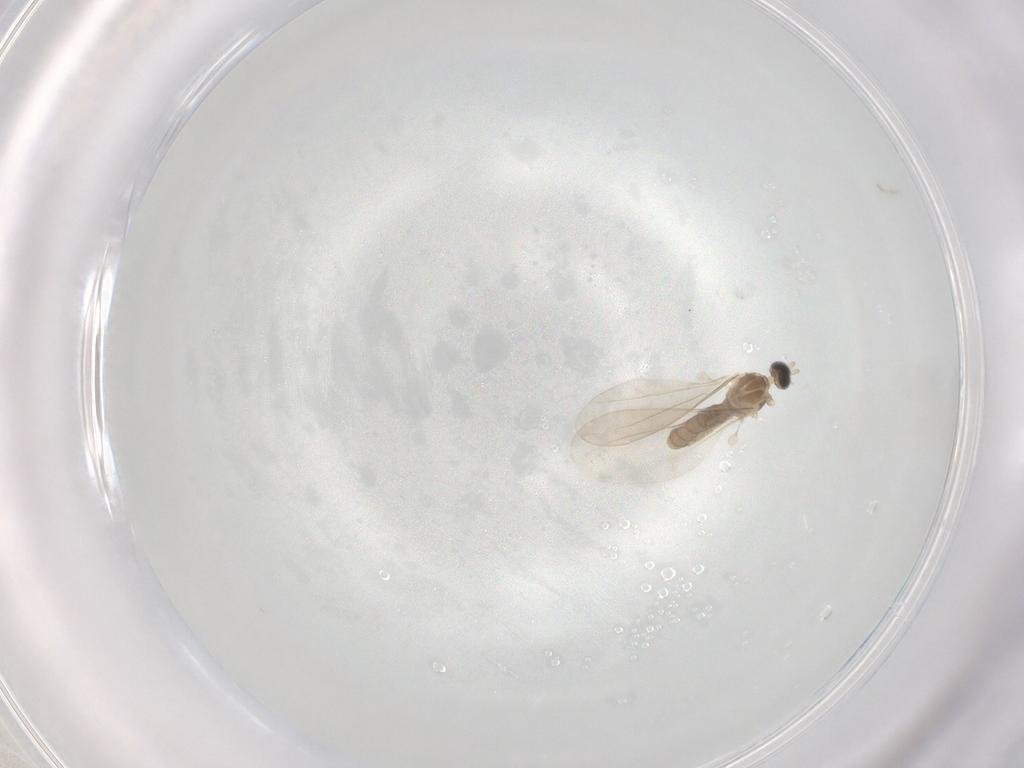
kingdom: Animalia
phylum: Arthropoda
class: Insecta
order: Diptera
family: Cecidomyiidae
